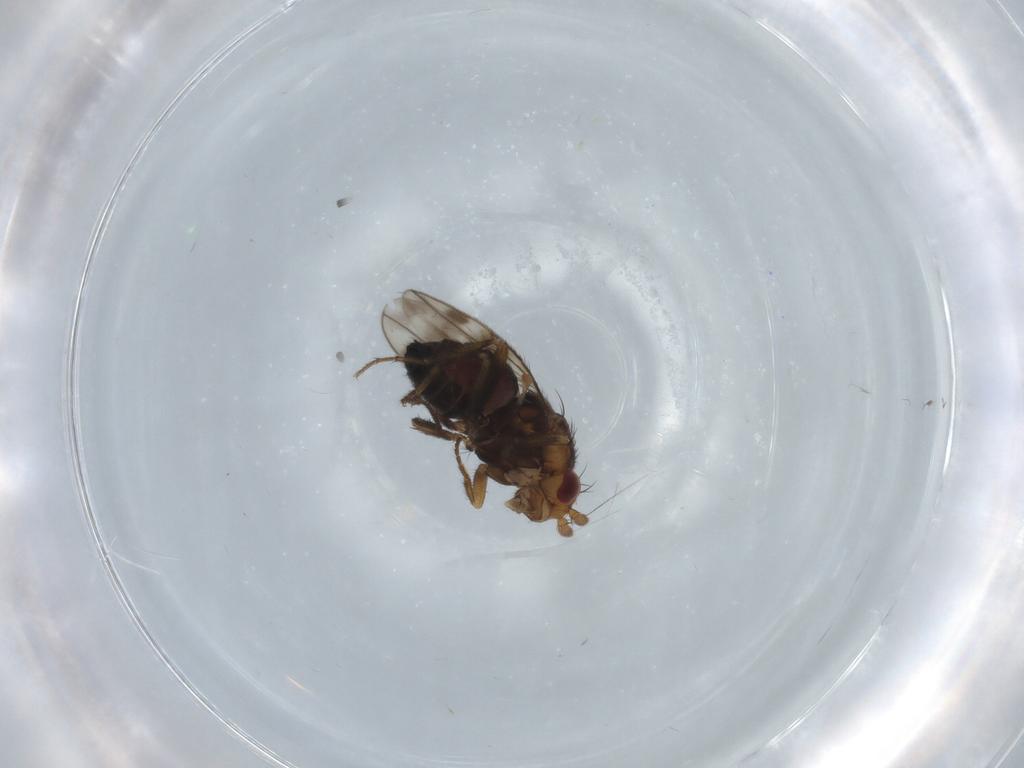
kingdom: Animalia
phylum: Arthropoda
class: Insecta
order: Diptera
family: Sphaeroceridae
